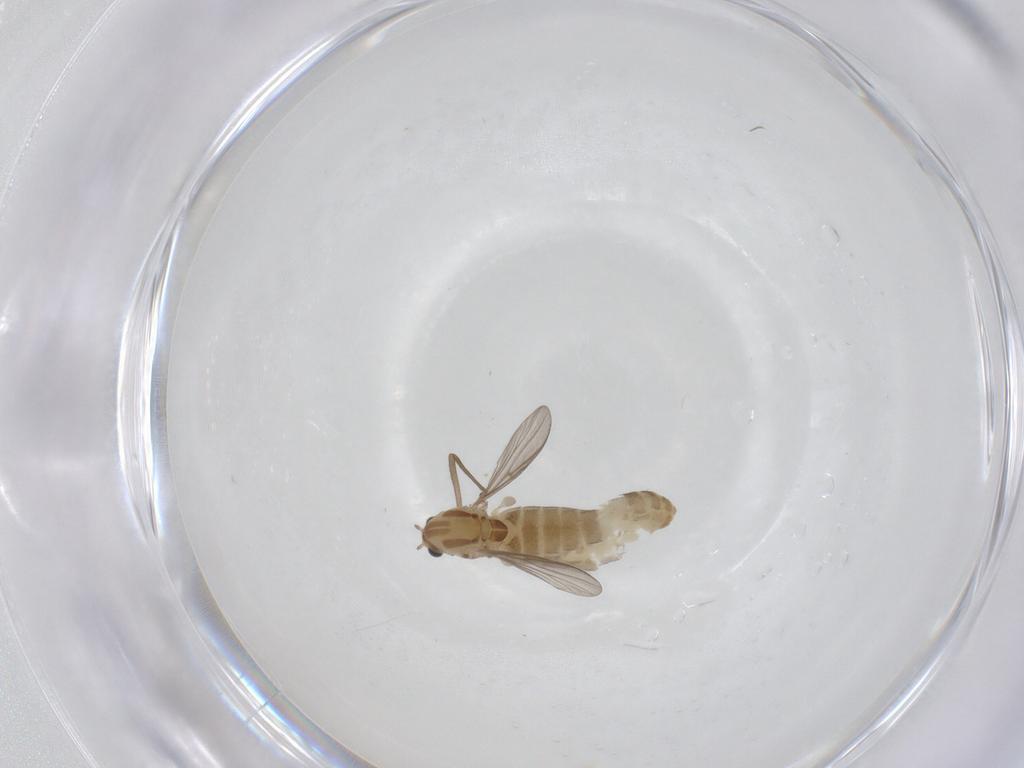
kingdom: Animalia
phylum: Arthropoda
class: Insecta
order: Diptera
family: Chironomidae
